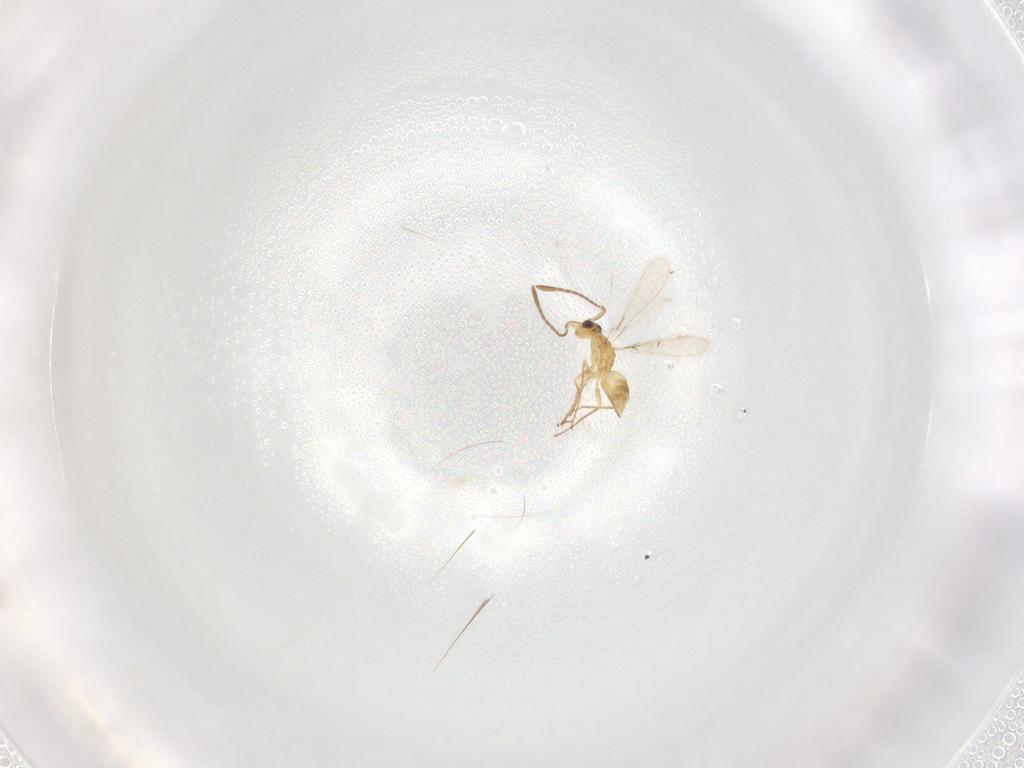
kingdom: Animalia
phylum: Arthropoda
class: Insecta
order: Hymenoptera
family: Mymaridae
